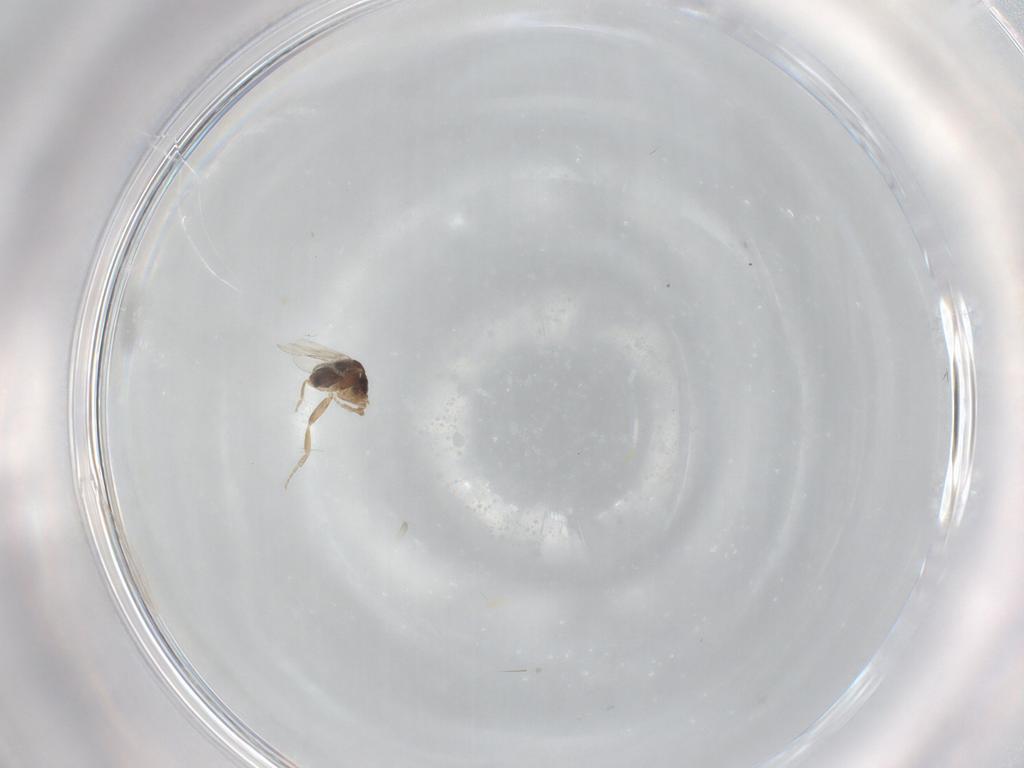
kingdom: Animalia
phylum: Arthropoda
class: Insecta
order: Diptera
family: Phoridae
